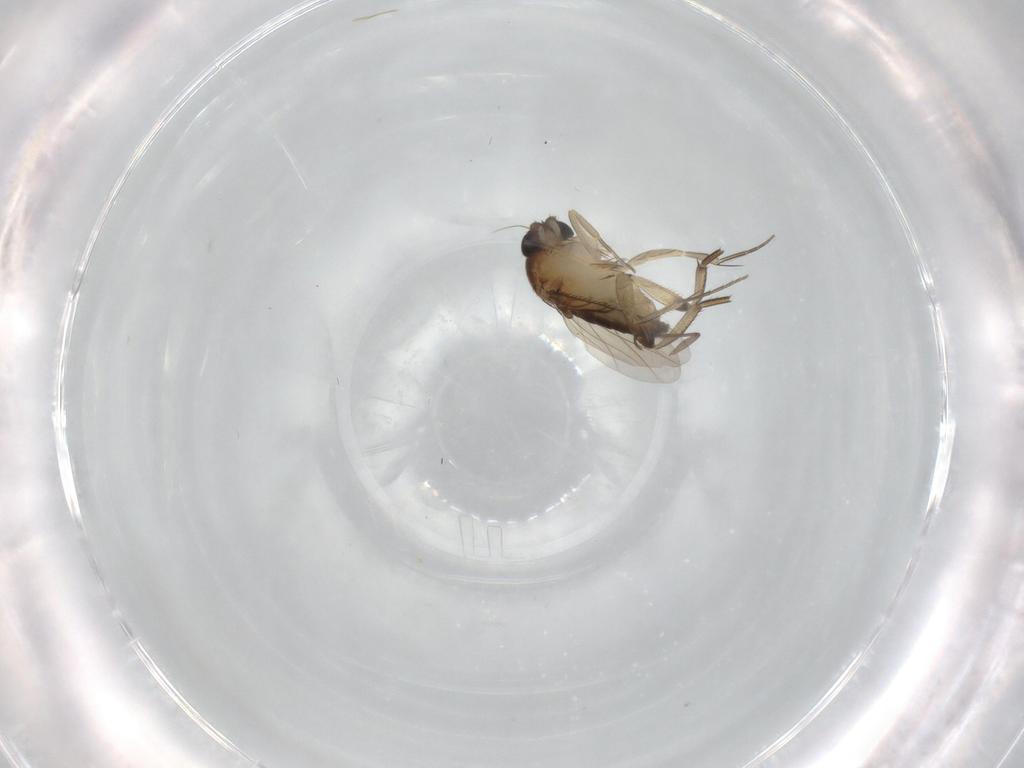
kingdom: Animalia
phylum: Arthropoda
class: Insecta
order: Diptera
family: Phoridae
